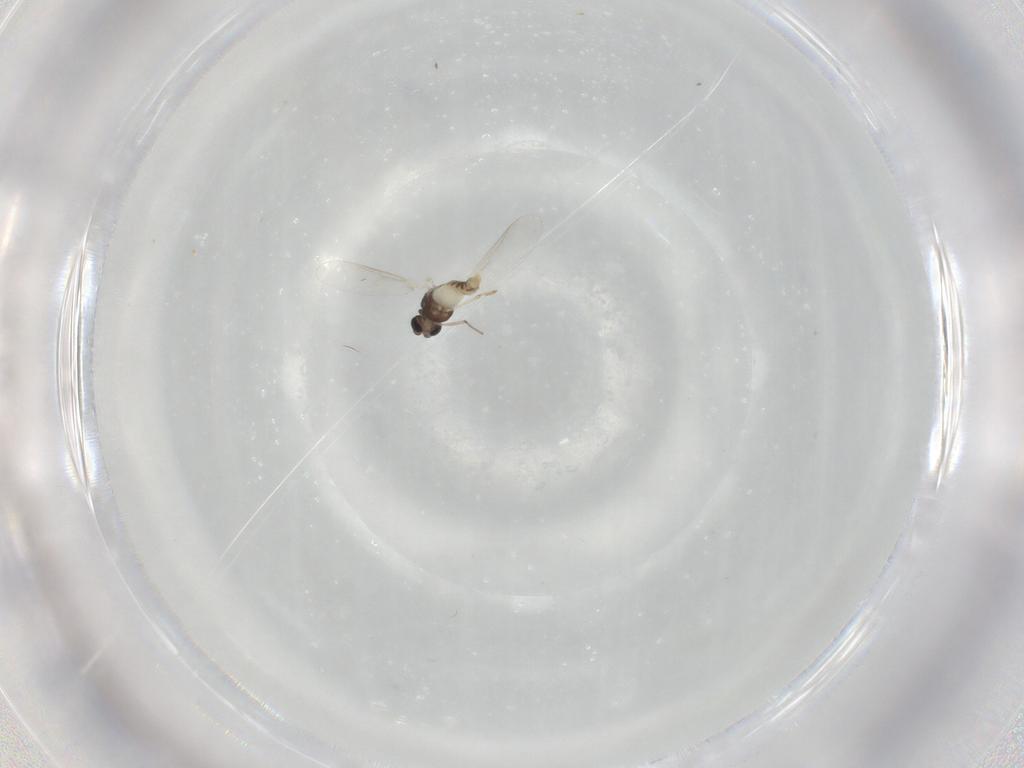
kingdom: Animalia
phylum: Arthropoda
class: Insecta
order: Diptera
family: Chironomidae
